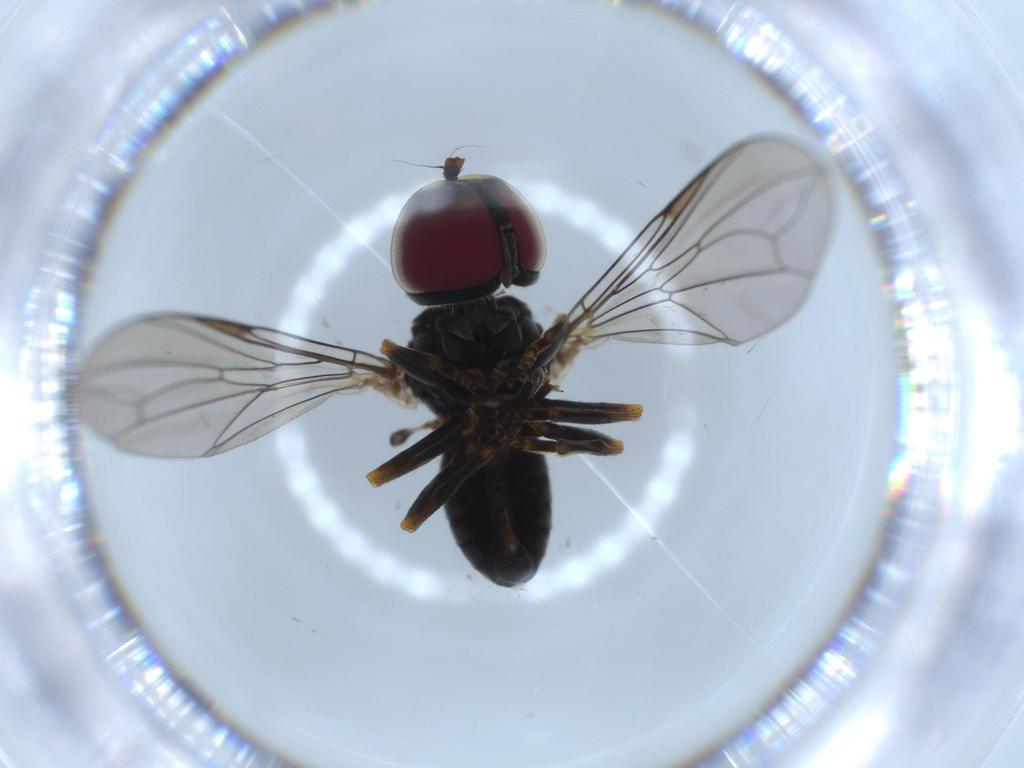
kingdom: Animalia
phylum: Arthropoda
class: Insecta
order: Diptera
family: Pipunculidae
